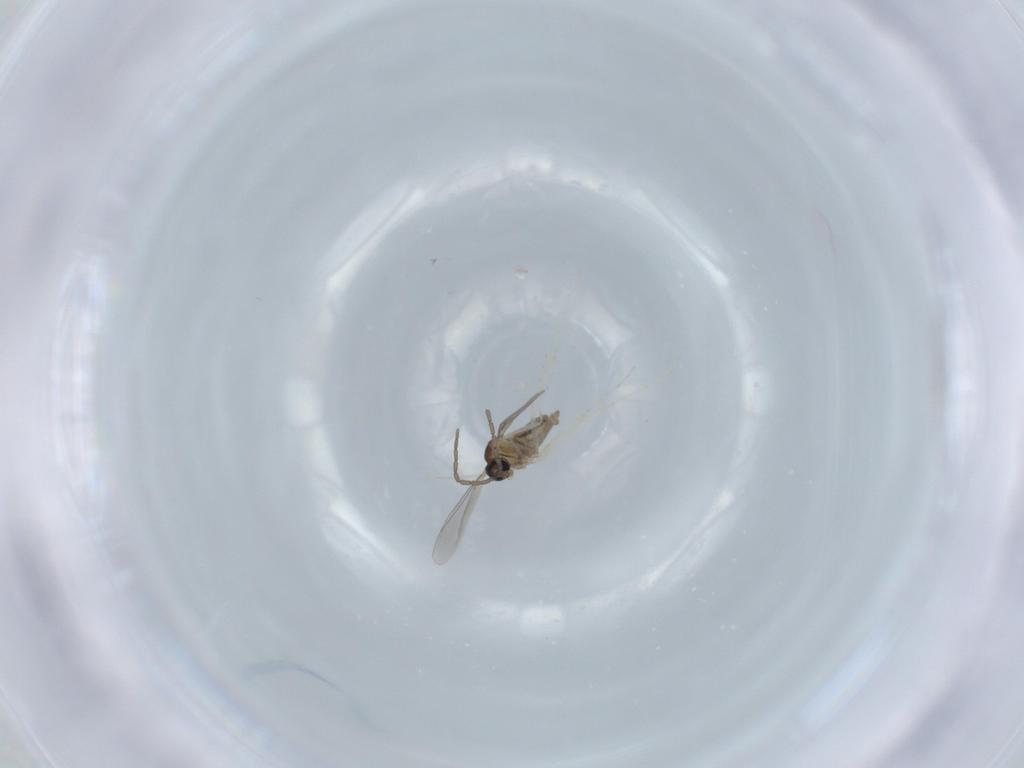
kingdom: Animalia
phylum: Arthropoda
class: Insecta
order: Diptera
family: Cecidomyiidae
